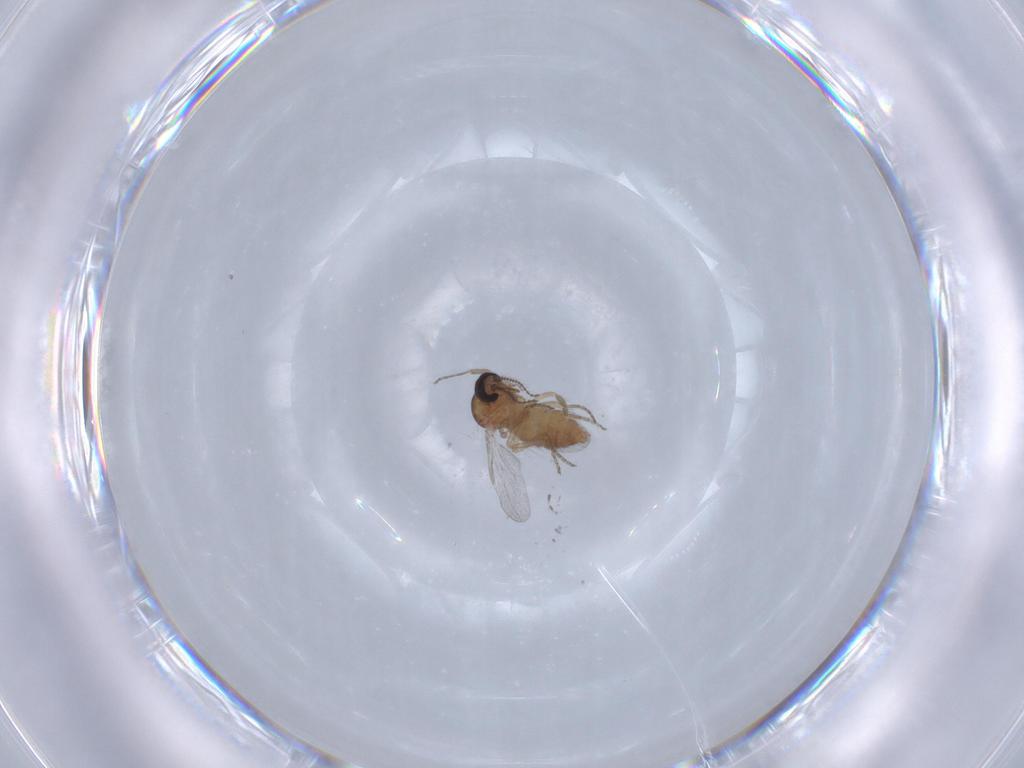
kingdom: Animalia
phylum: Arthropoda
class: Insecta
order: Diptera
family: Ceratopogonidae
